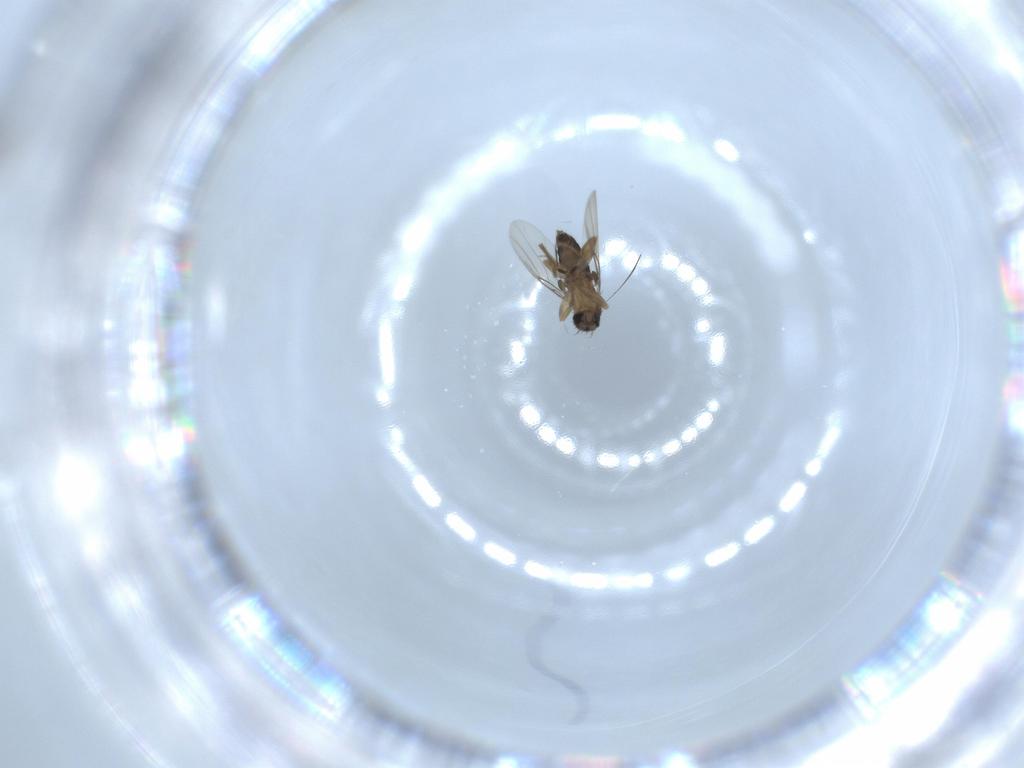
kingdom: Animalia
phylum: Arthropoda
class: Insecta
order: Diptera
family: Phoridae
